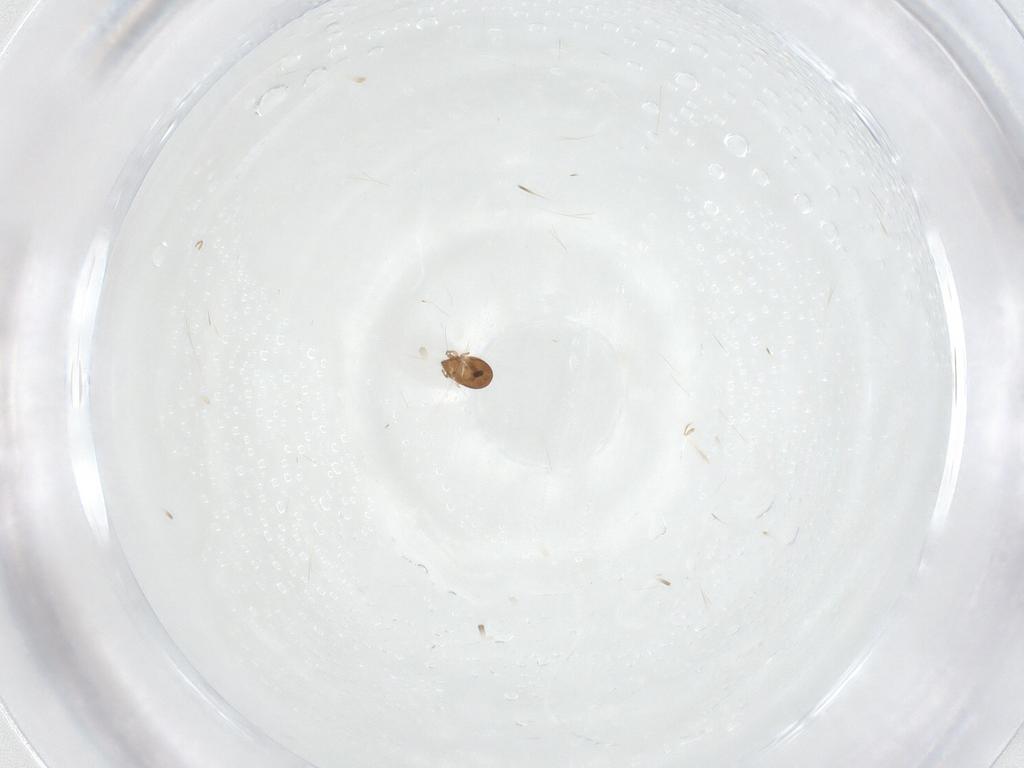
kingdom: Animalia
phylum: Arthropoda
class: Arachnida
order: Trombidiformes
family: Erythraeidae
